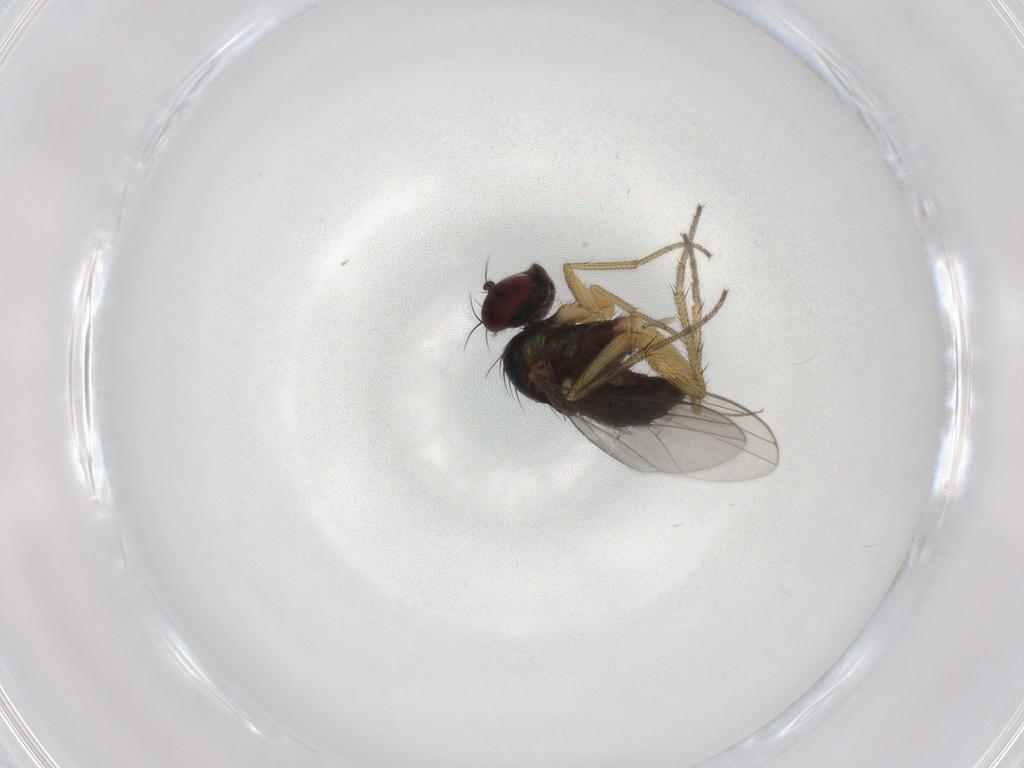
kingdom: Animalia
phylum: Arthropoda
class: Insecta
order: Diptera
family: Dolichopodidae
